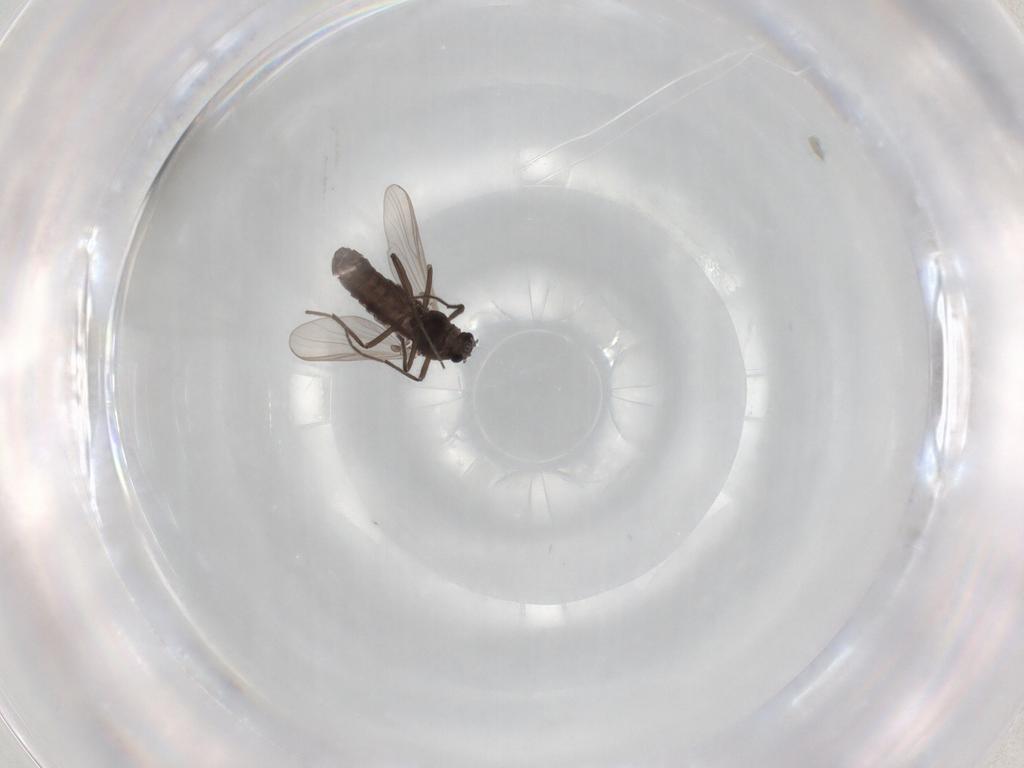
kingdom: Animalia
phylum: Arthropoda
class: Insecta
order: Diptera
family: Chironomidae
